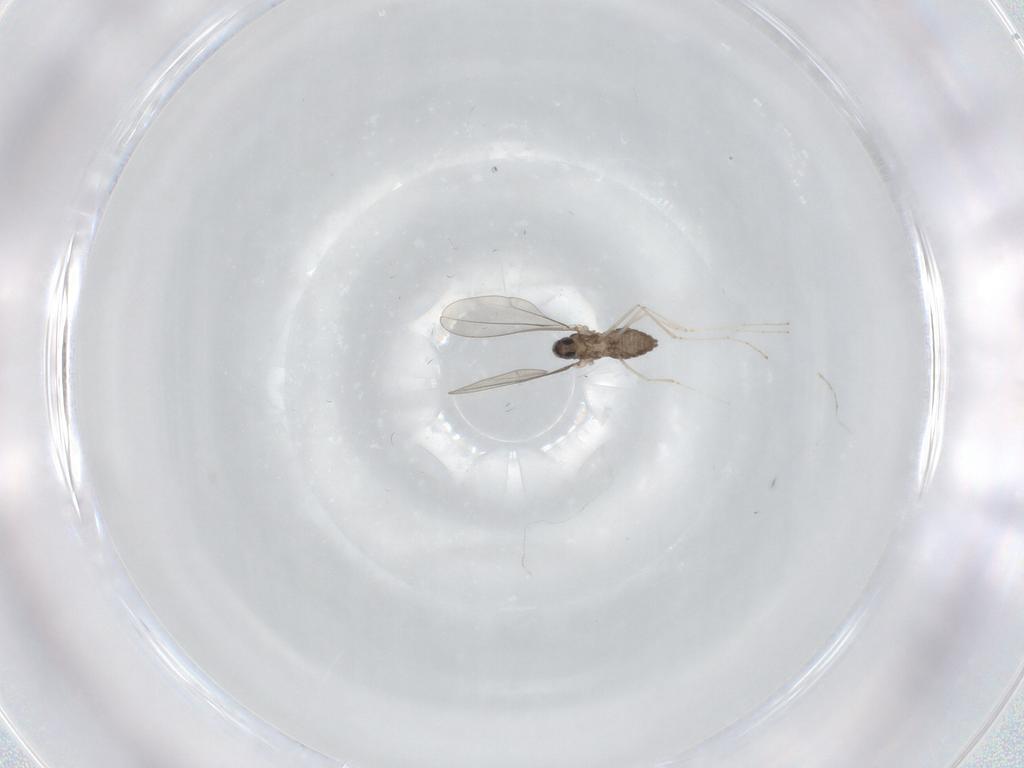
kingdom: Animalia
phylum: Arthropoda
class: Insecta
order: Diptera
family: Cecidomyiidae
